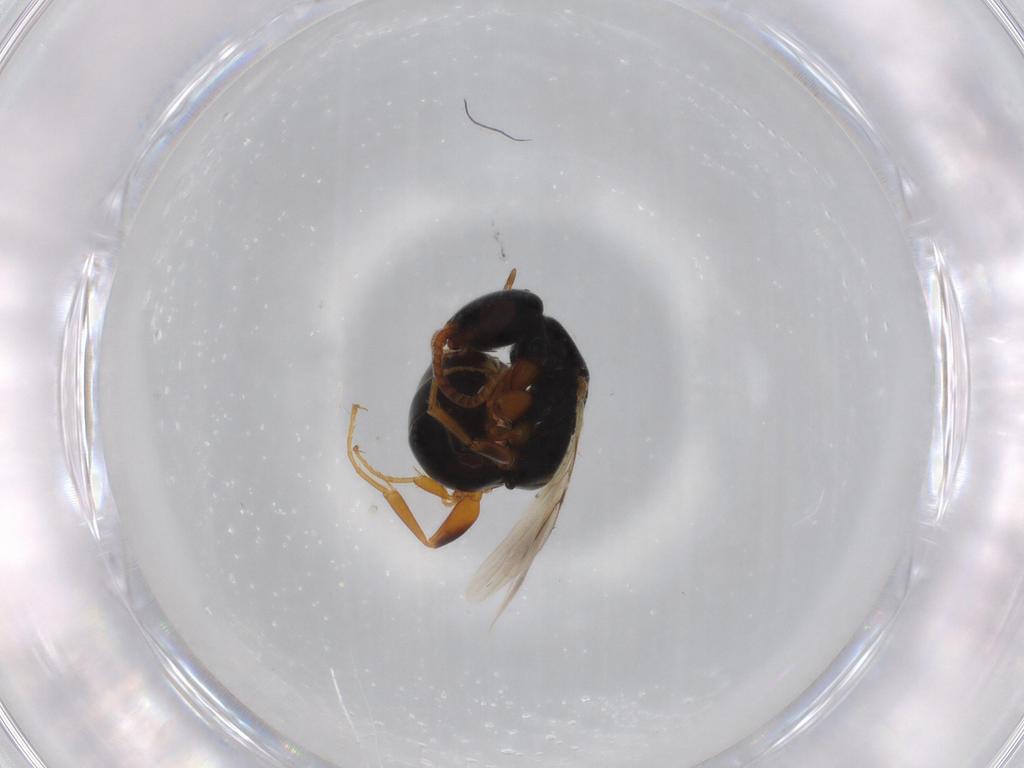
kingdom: Animalia
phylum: Arthropoda
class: Insecta
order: Hymenoptera
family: Bethylidae
